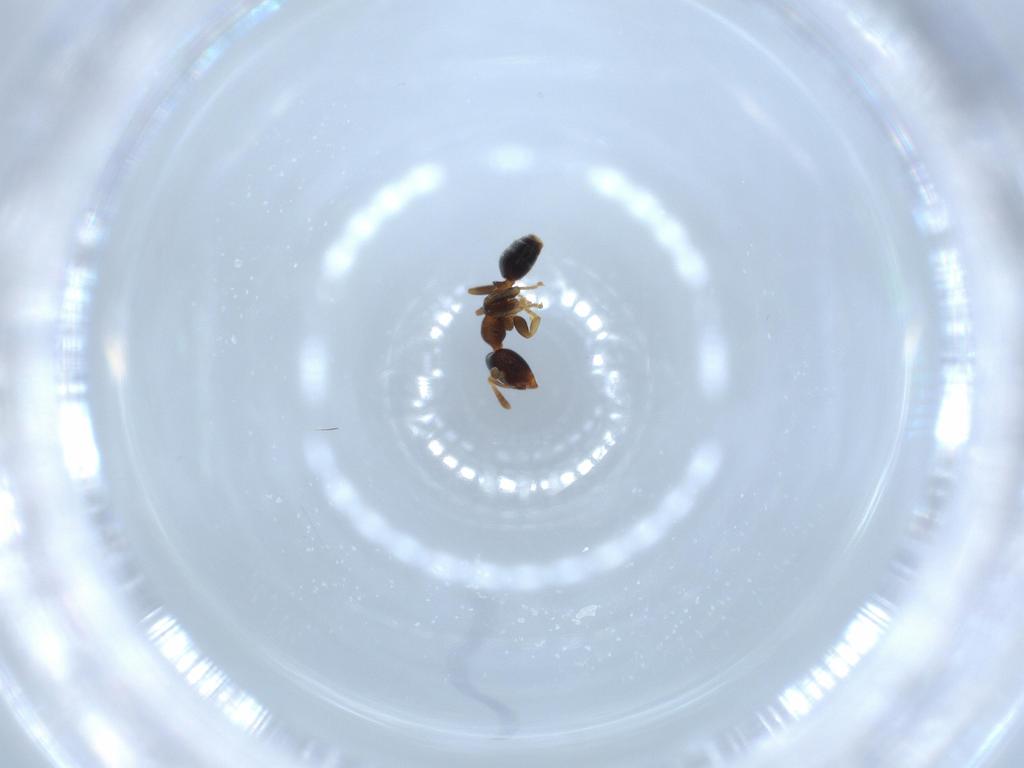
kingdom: Animalia
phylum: Arthropoda
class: Insecta
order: Hymenoptera
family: Formicidae
